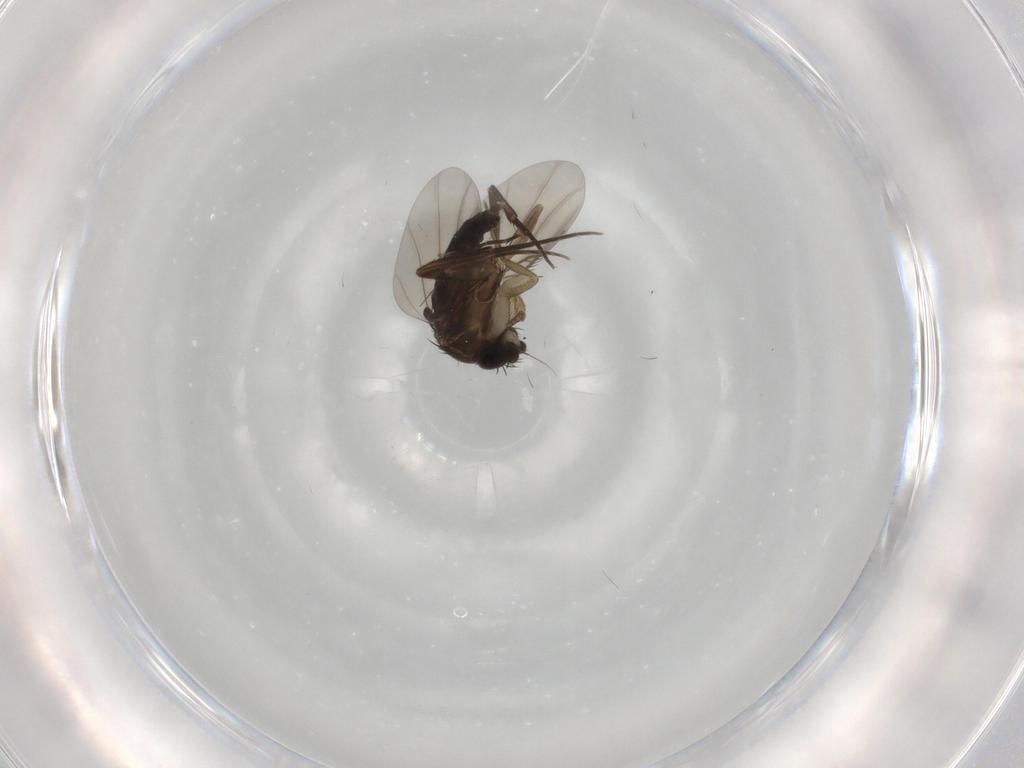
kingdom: Animalia
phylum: Arthropoda
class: Insecta
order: Diptera
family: Phoridae
